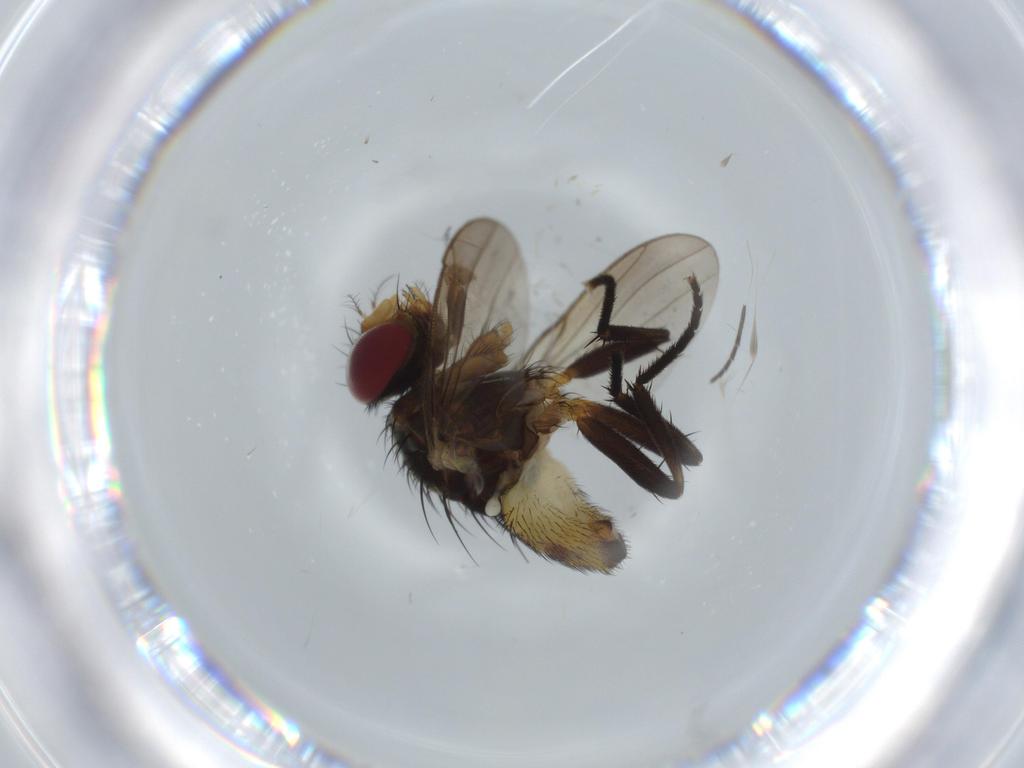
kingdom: Animalia
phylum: Arthropoda
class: Insecta
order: Diptera
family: Anthomyiidae
